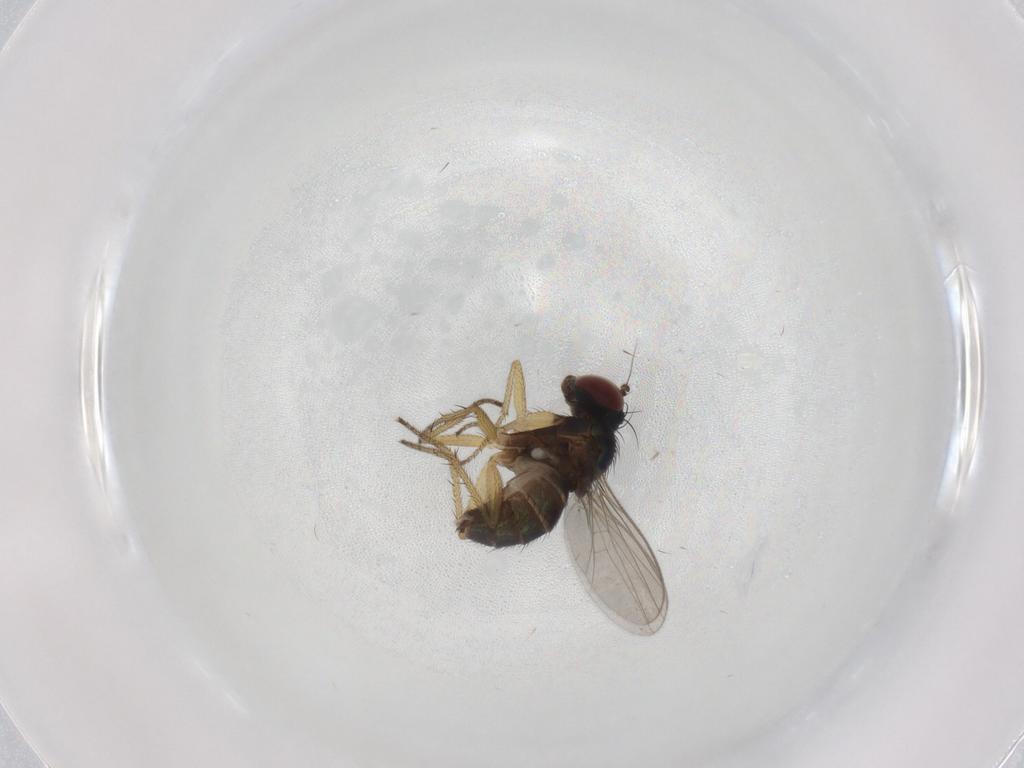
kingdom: Animalia
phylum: Arthropoda
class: Insecta
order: Diptera
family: Dolichopodidae
